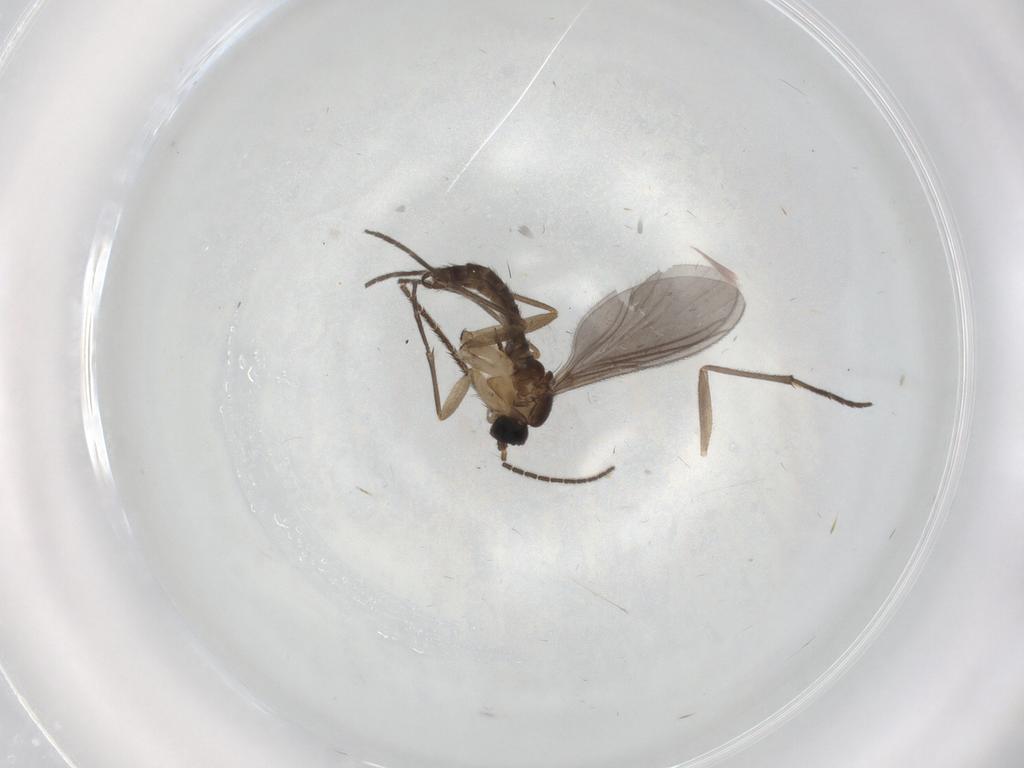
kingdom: Animalia
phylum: Arthropoda
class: Insecta
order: Diptera
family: Sciaridae
